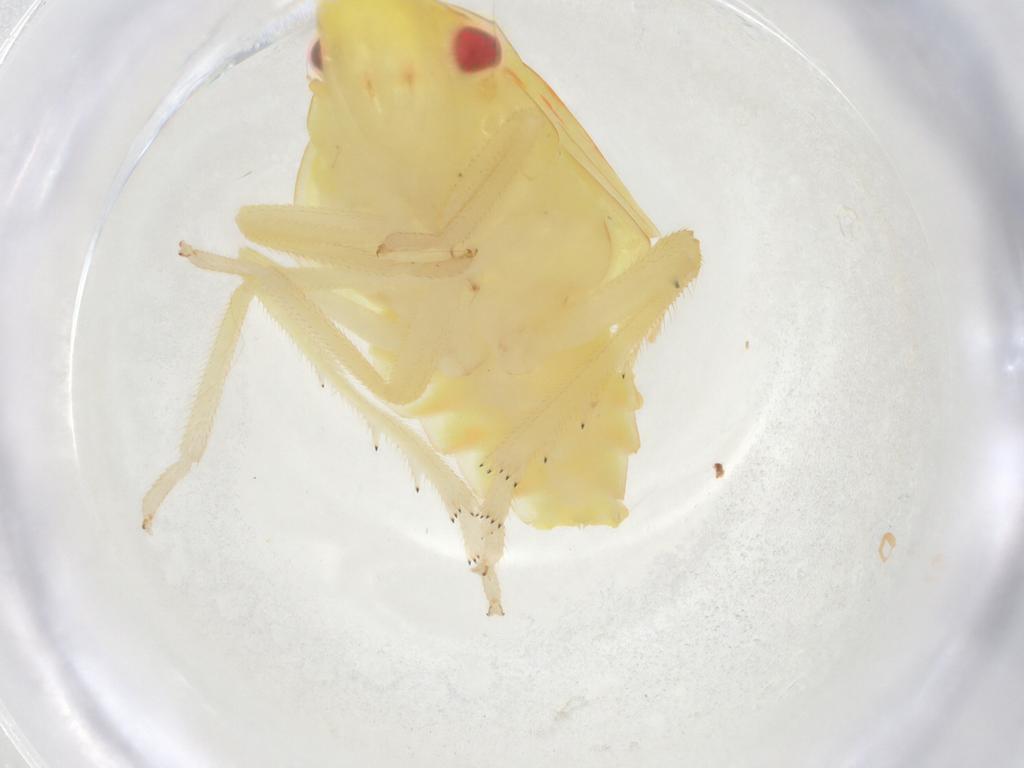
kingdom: Animalia
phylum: Arthropoda
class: Insecta
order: Hemiptera
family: Tropiduchidae
